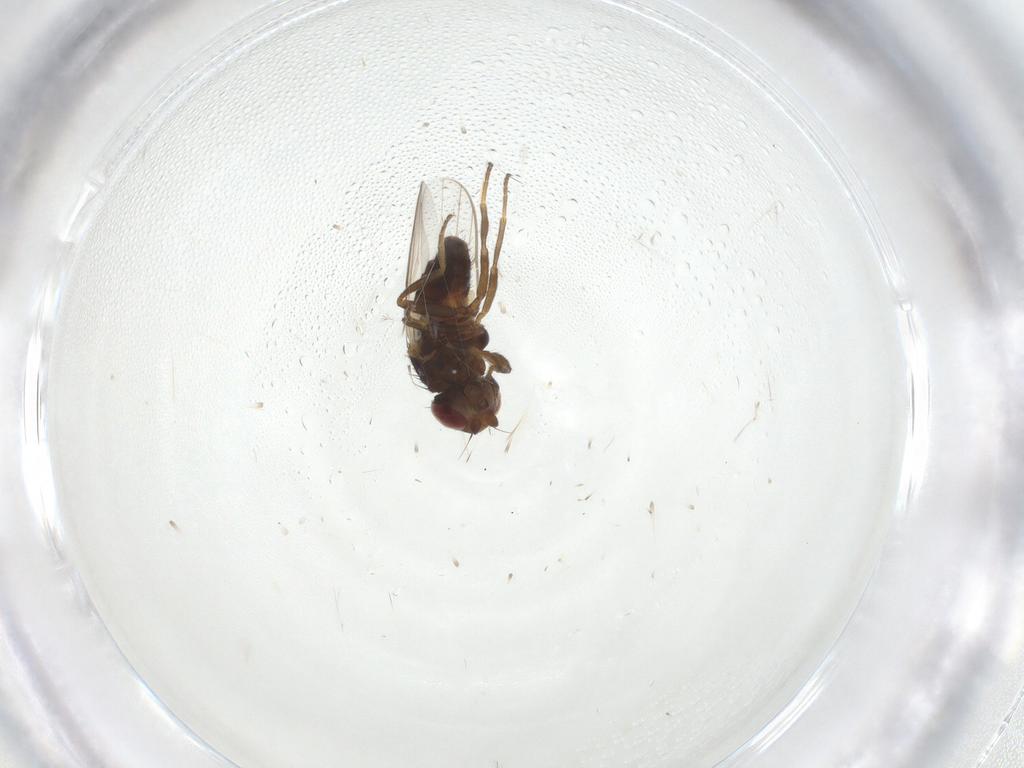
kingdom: Animalia
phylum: Arthropoda
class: Insecta
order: Diptera
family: Chloropidae
